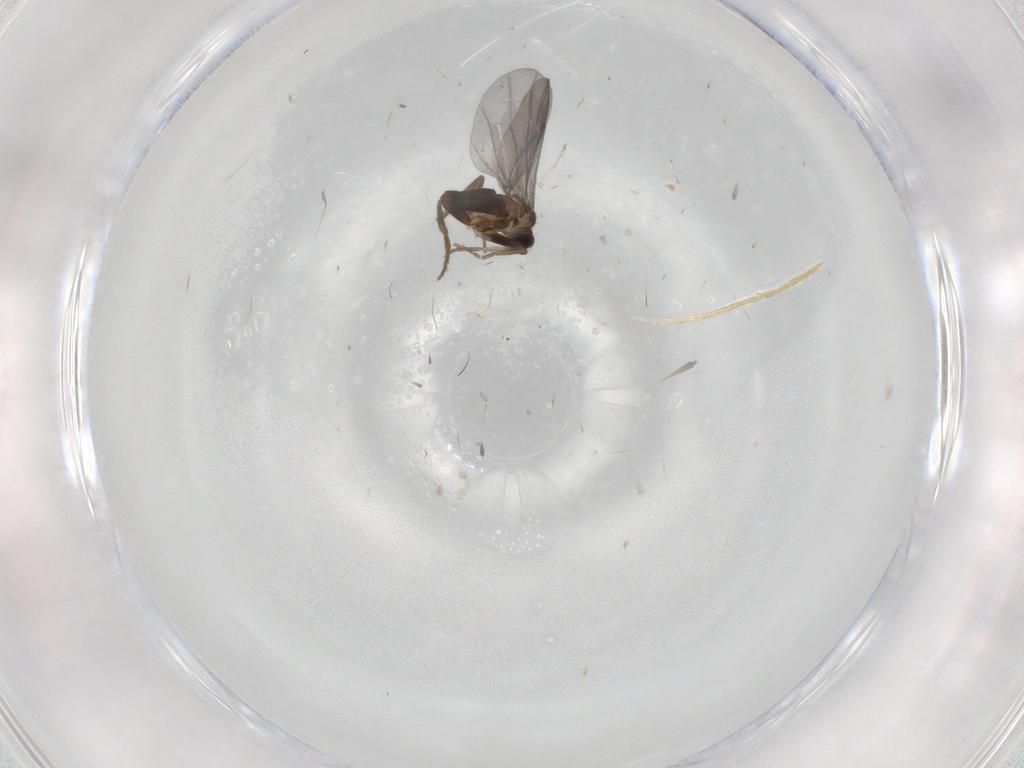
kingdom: Animalia
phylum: Arthropoda
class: Insecta
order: Diptera
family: Phoridae
